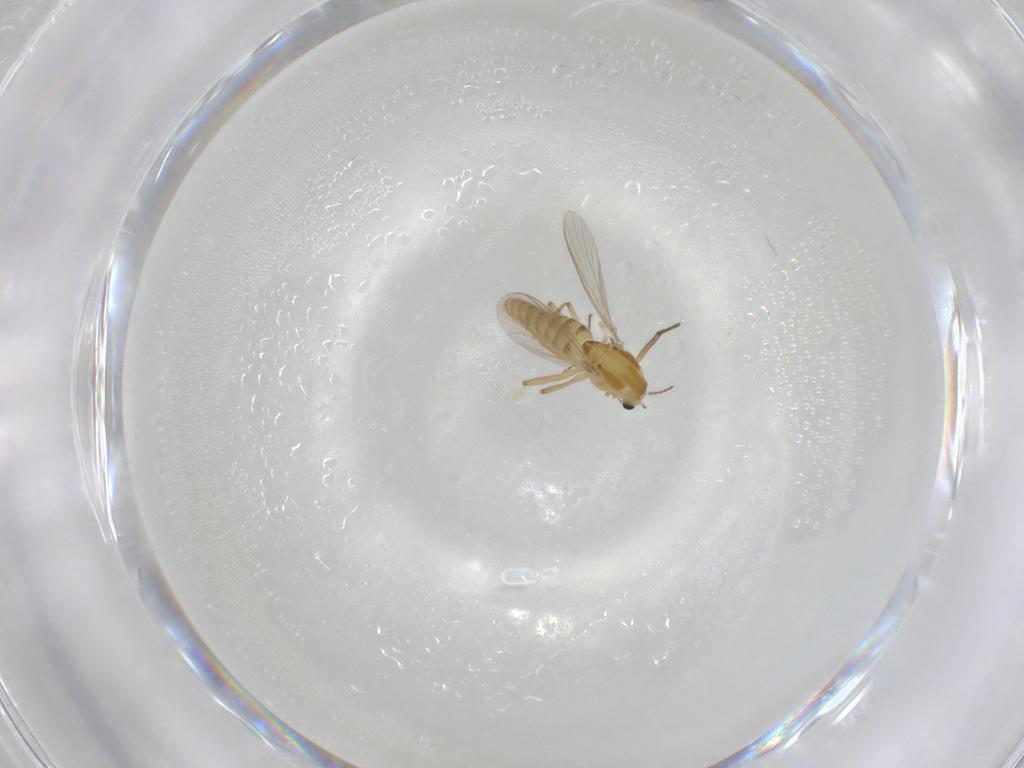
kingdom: Animalia
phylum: Arthropoda
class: Insecta
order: Diptera
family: Chironomidae
